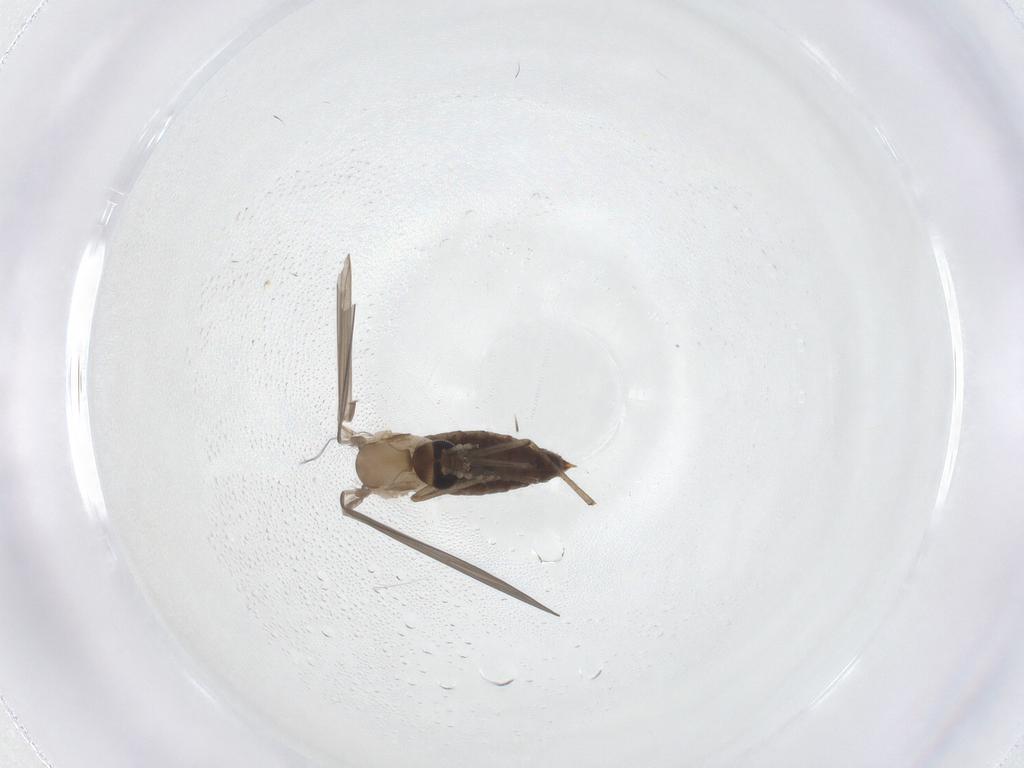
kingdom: Animalia
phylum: Arthropoda
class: Insecta
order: Diptera
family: Psychodidae
